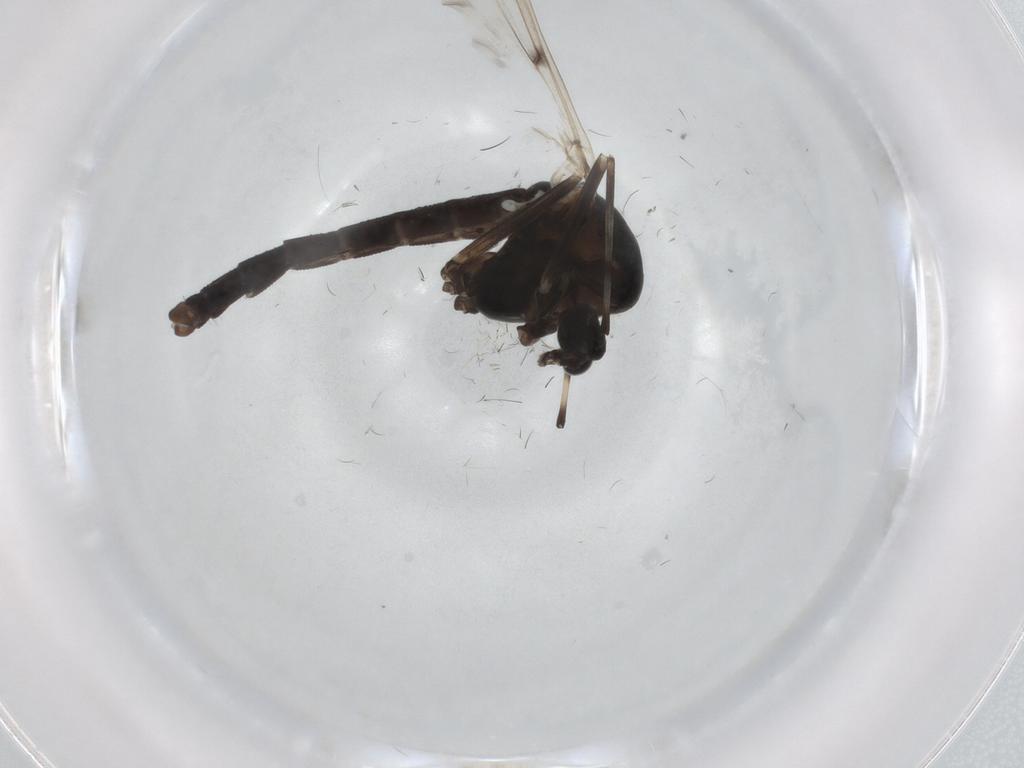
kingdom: Animalia
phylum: Arthropoda
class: Insecta
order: Diptera
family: Chironomidae
